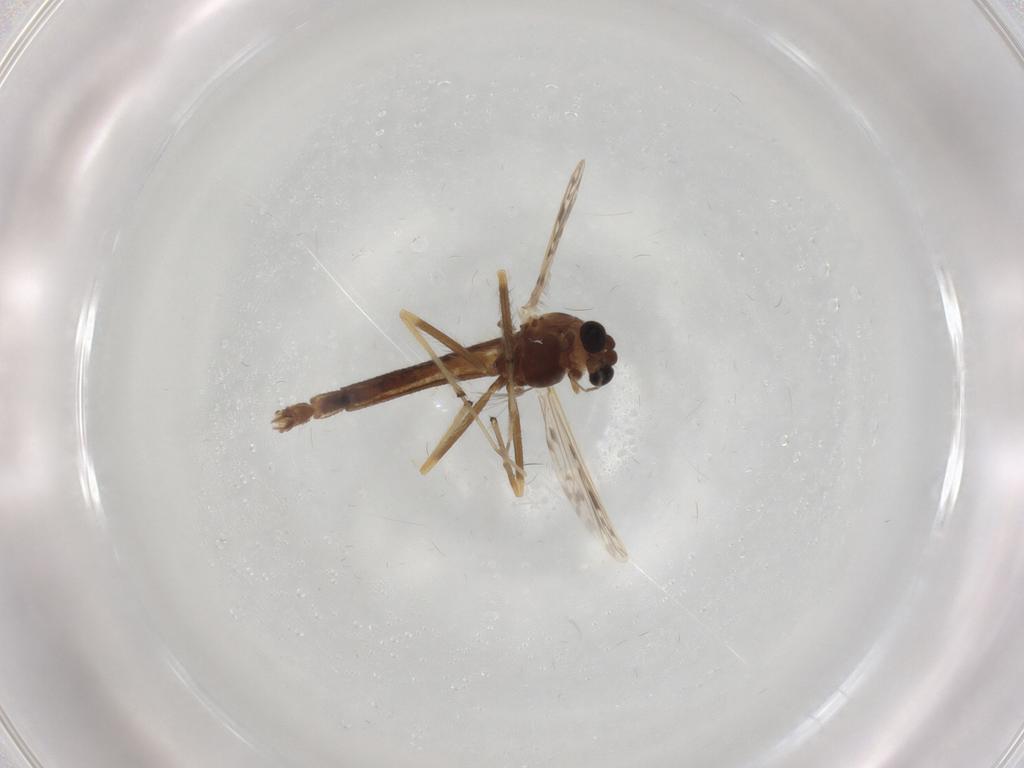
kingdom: Animalia
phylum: Arthropoda
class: Insecta
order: Diptera
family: Chironomidae
